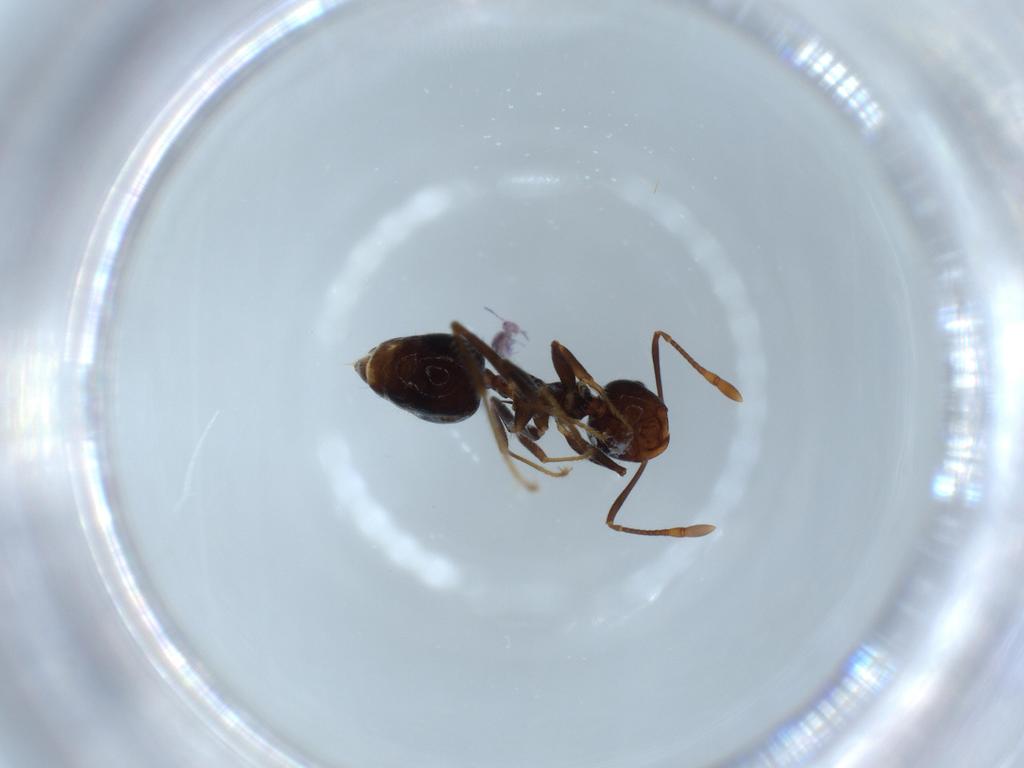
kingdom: Animalia
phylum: Arthropoda
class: Insecta
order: Hymenoptera
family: Formicidae
